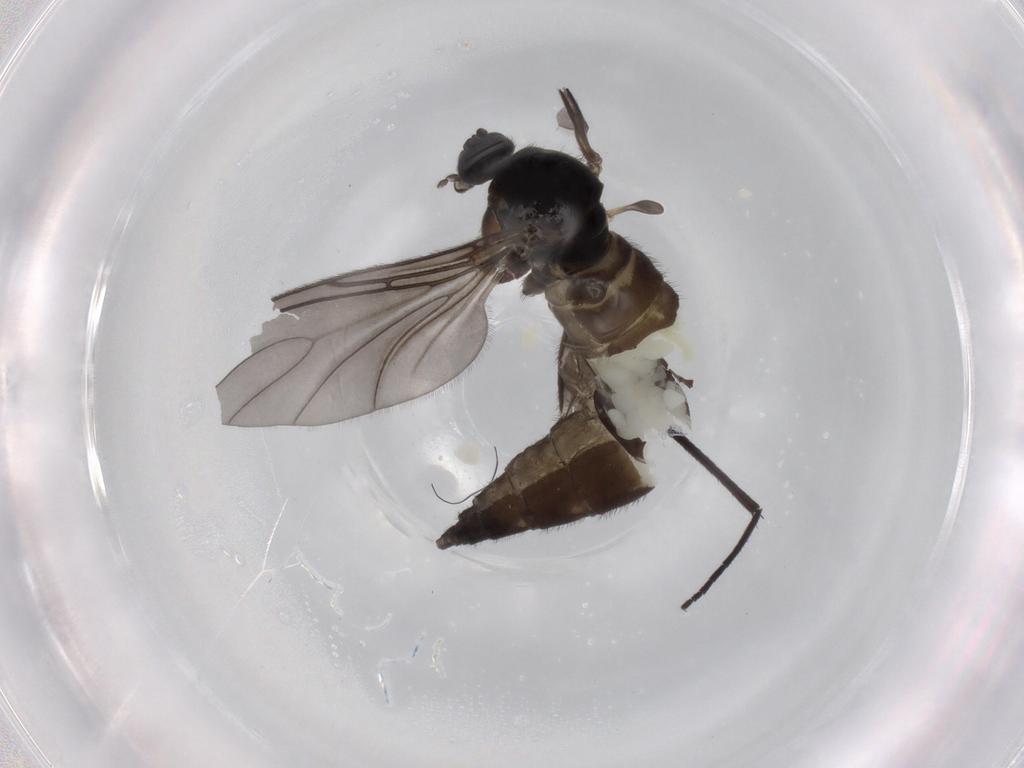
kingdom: Animalia
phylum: Arthropoda
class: Insecta
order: Diptera
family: Sciaridae
